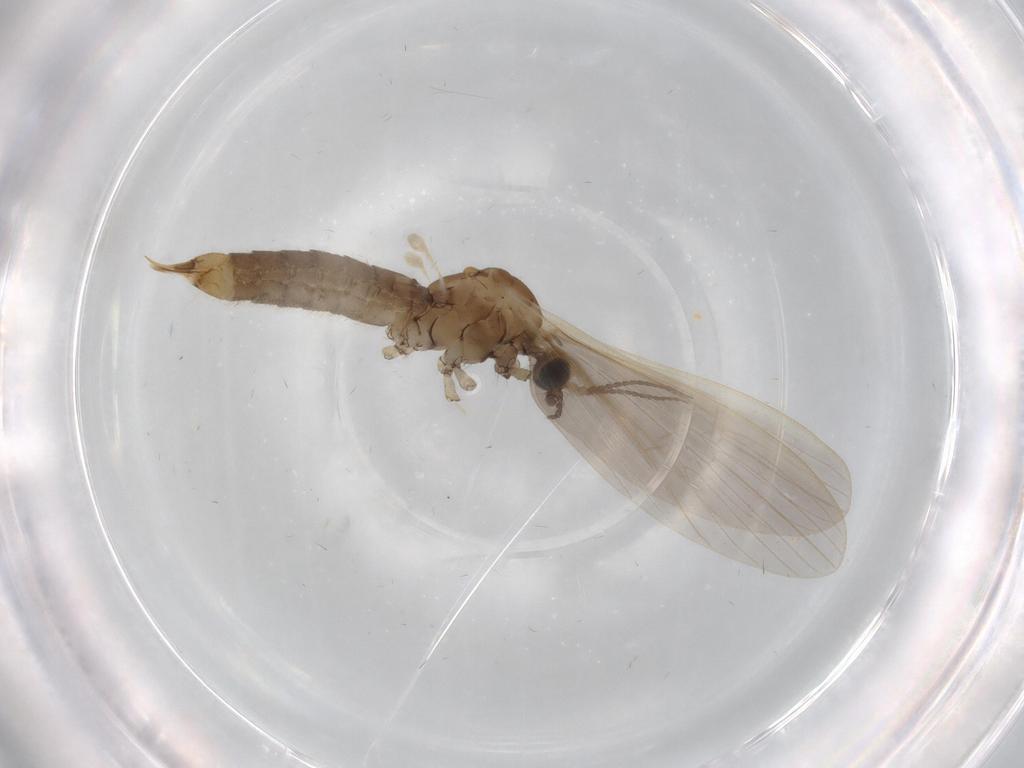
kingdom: Animalia
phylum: Arthropoda
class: Insecta
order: Diptera
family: Limoniidae
